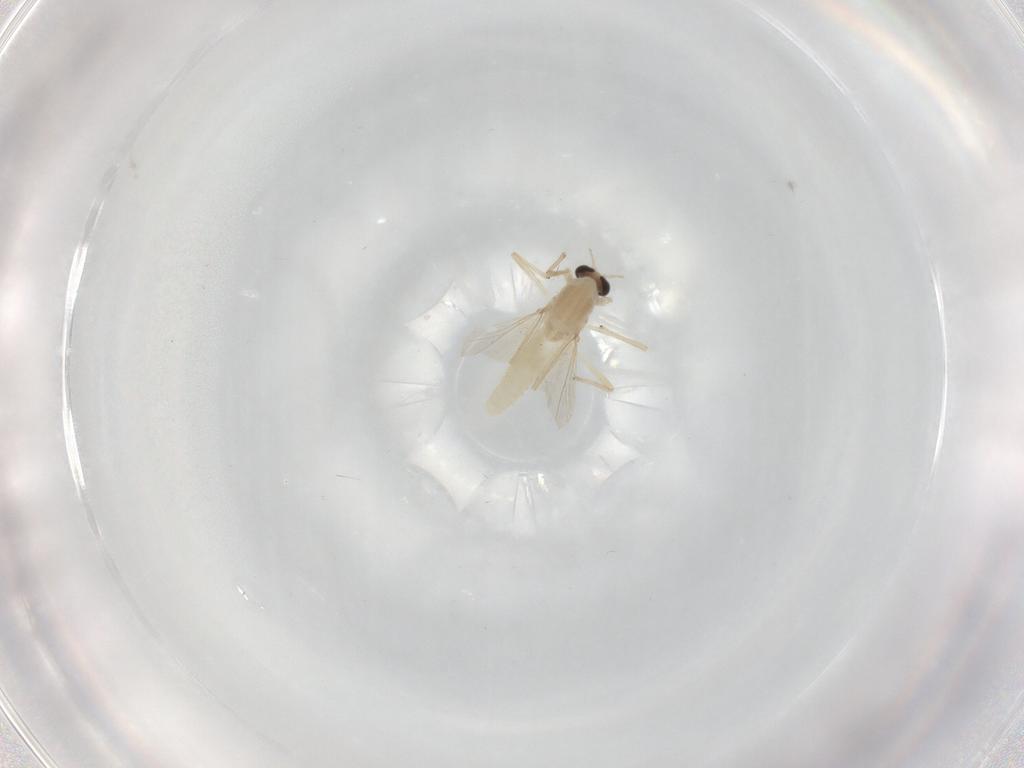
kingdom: Animalia
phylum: Arthropoda
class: Insecta
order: Diptera
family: Chironomidae
